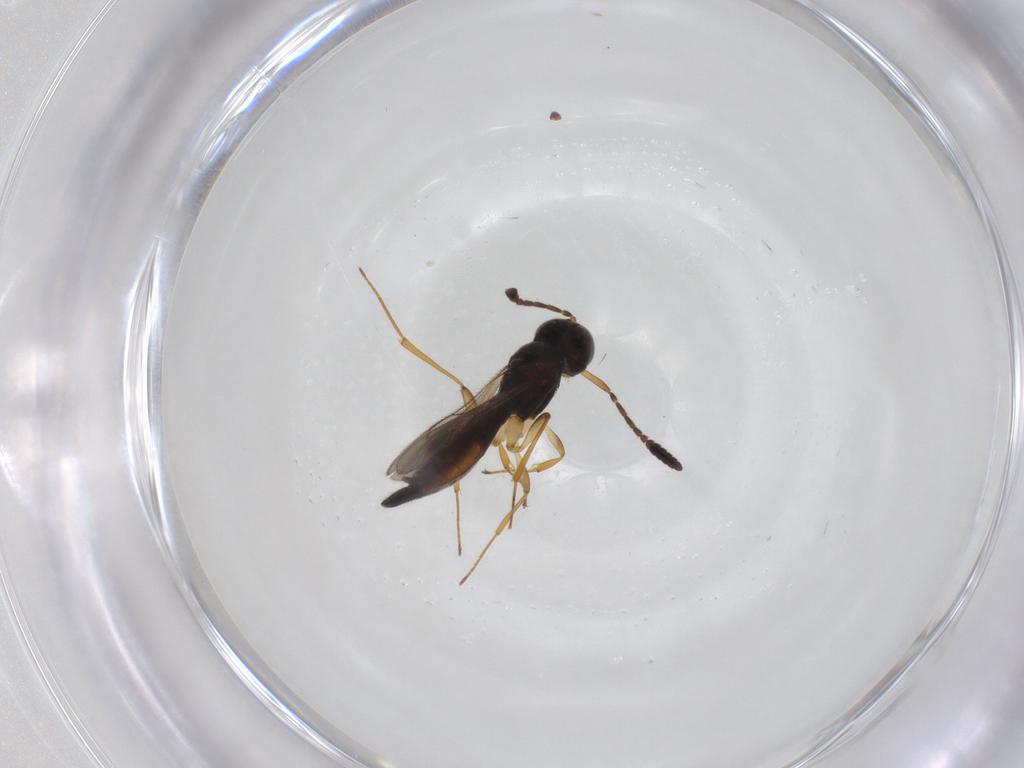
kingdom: Animalia
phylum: Arthropoda
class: Insecta
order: Hymenoptera
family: Scelionidae
